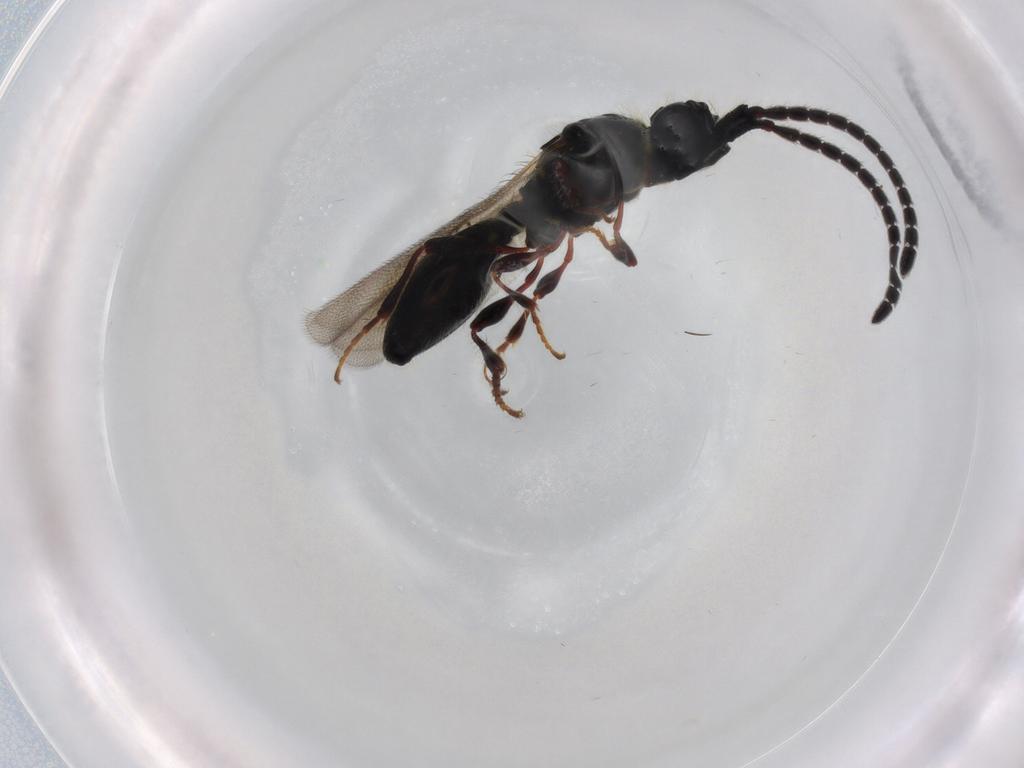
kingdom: Animalia
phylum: Arthropoda
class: Insecta
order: Hymenoptera
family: Diapriidae
